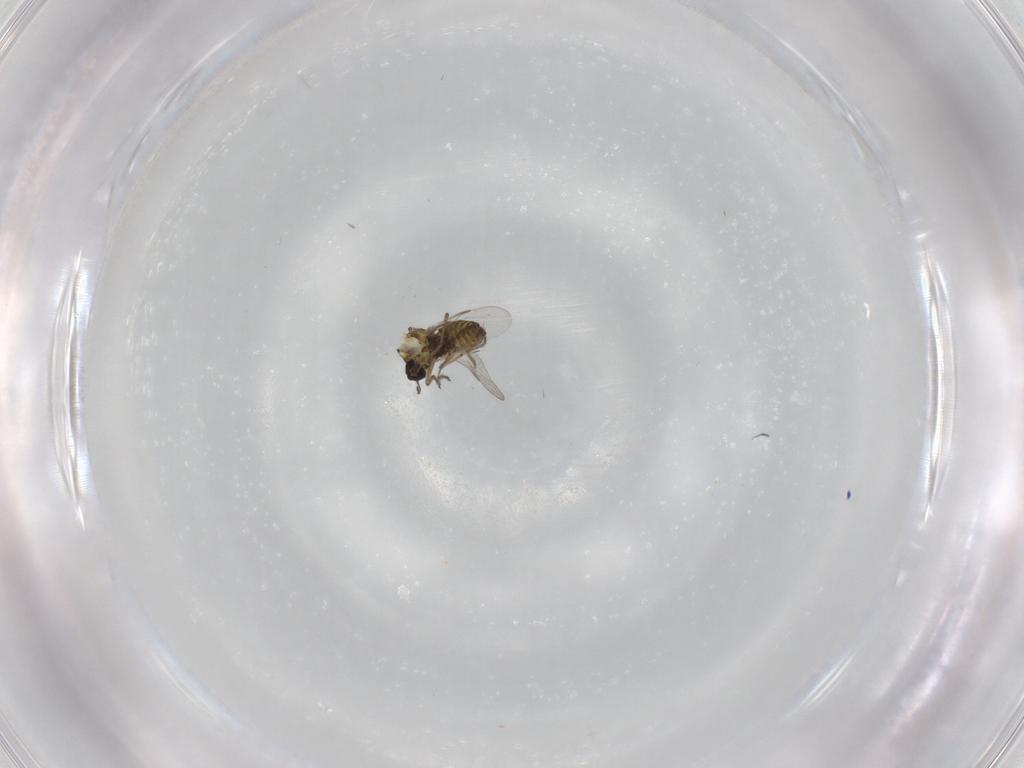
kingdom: Animalia
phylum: Arthropoda
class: Insecta
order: Diptera
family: Ceratopogonidae
